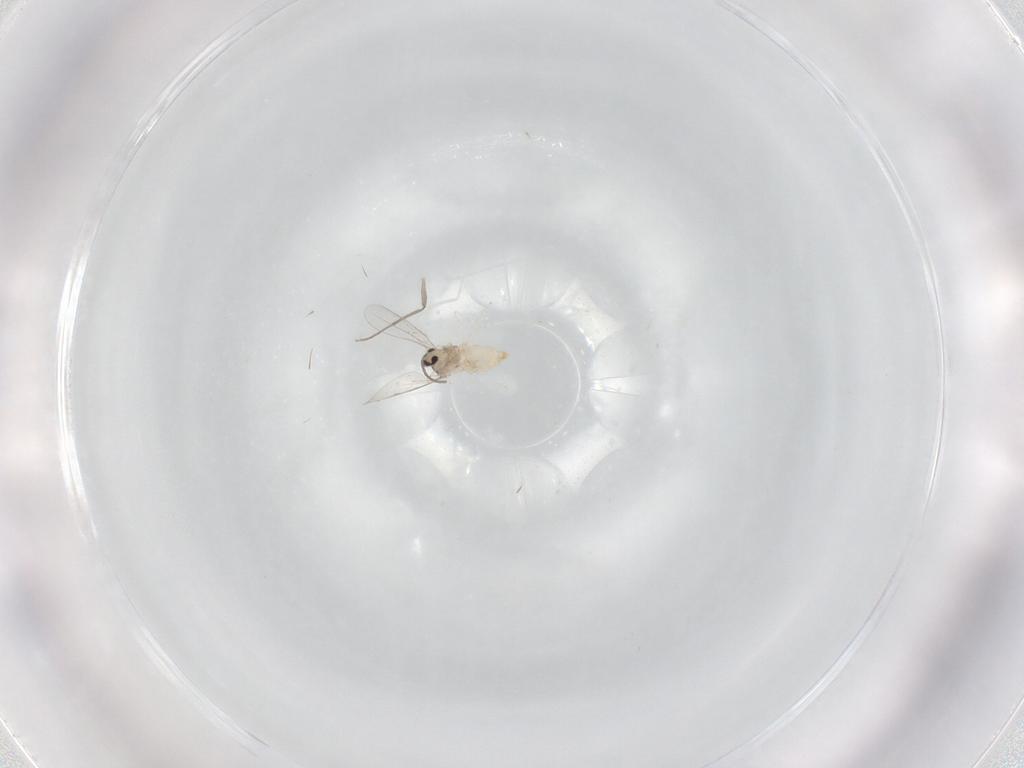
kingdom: Animalia
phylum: Arthropoda
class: Insecta
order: Diptera
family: Cecidomyiidae
